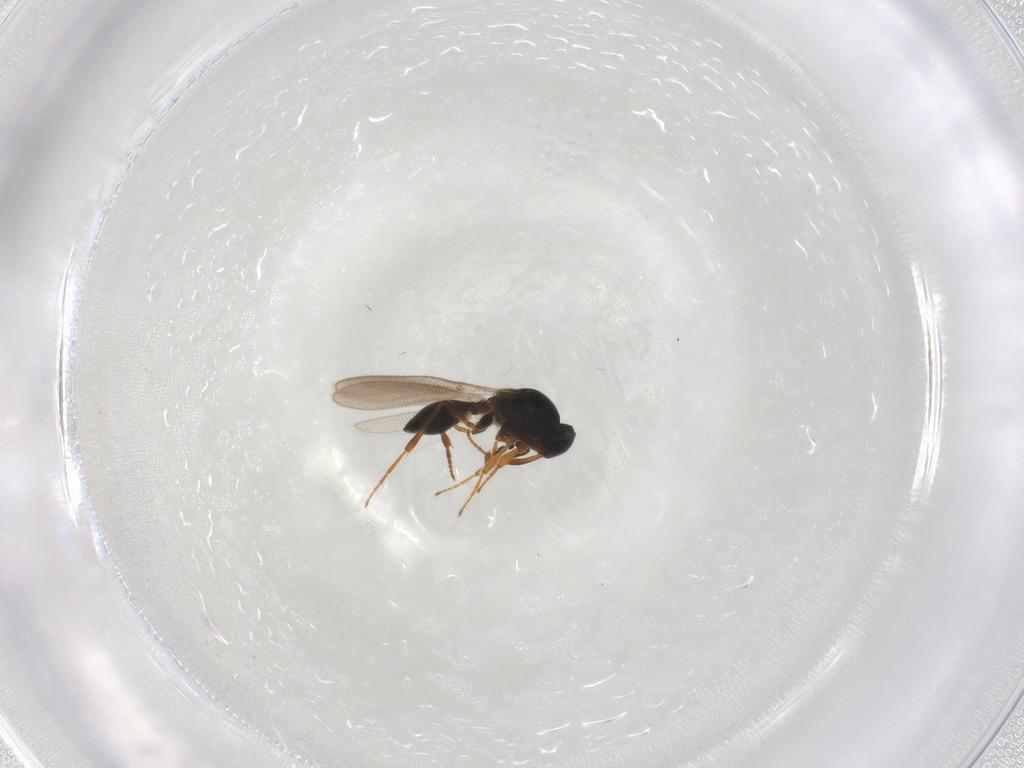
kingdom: Animalia
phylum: Arthropoda
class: Insecta
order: Hymenoptera
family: Platygastridae
